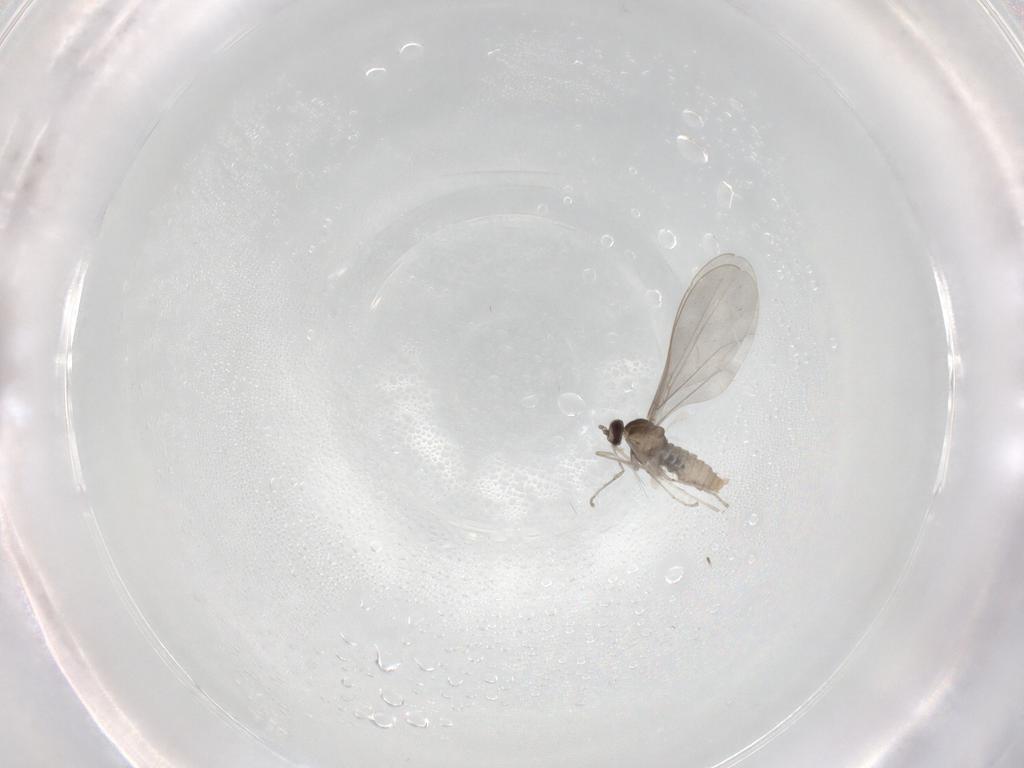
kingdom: Animalia
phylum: Arthropoda
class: Insecta
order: Diptera
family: Cecidomyiidae
